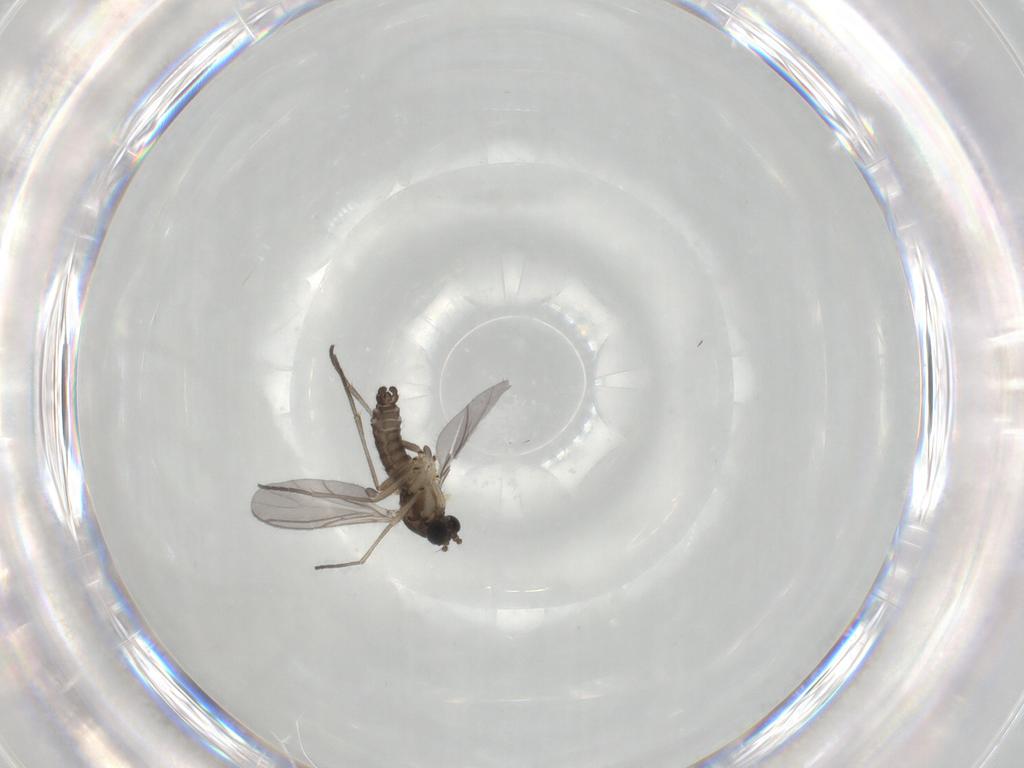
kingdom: Animalia
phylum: Arthropoda
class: Insecta
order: Diptera
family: Sciaridae
